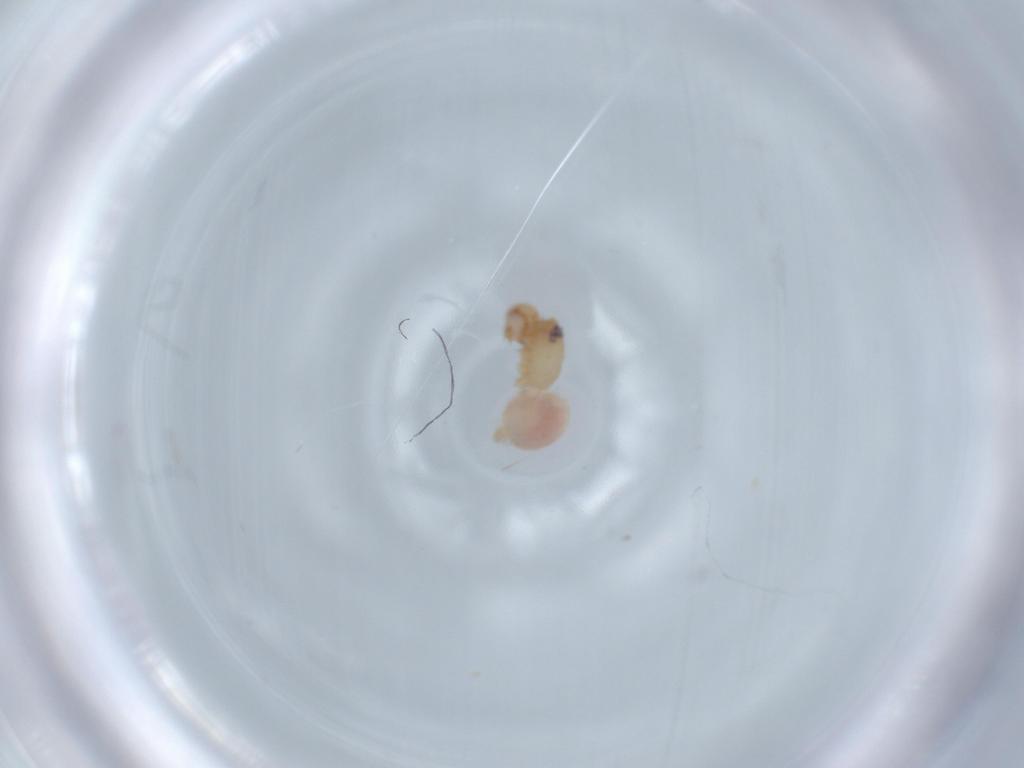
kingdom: Animalia
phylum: Arthropoda
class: Arachnida
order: Araneae
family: Oonopidae
